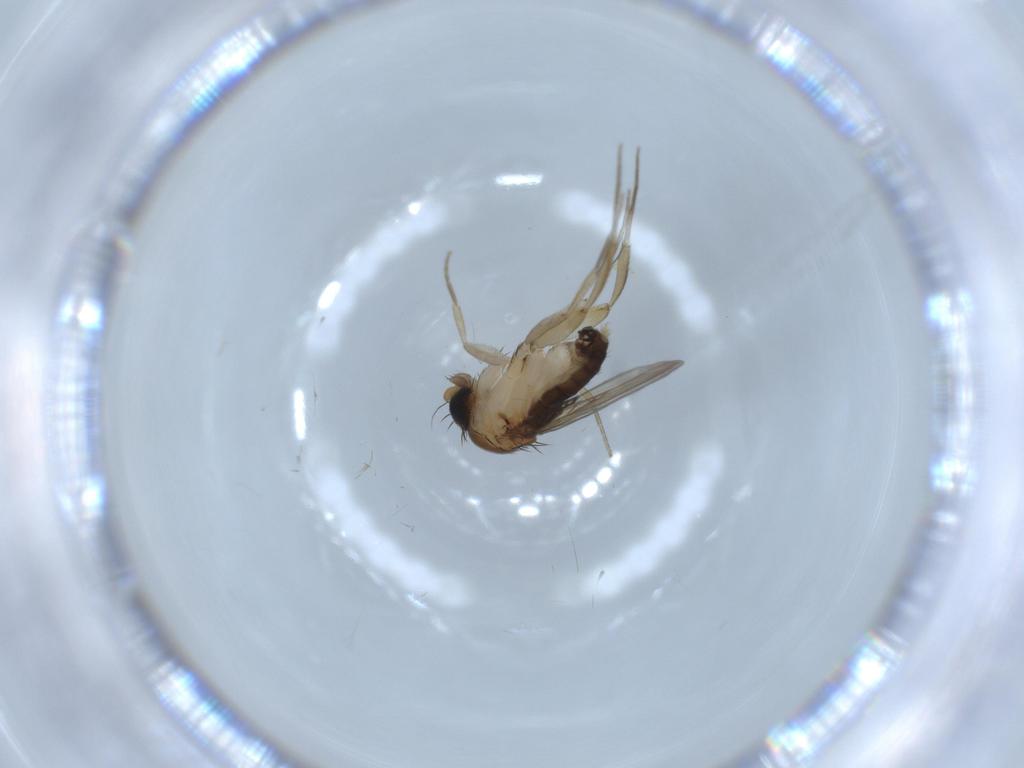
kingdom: Animalia
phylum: Arthropoda
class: Insecta
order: Diptera
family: Phoridae
